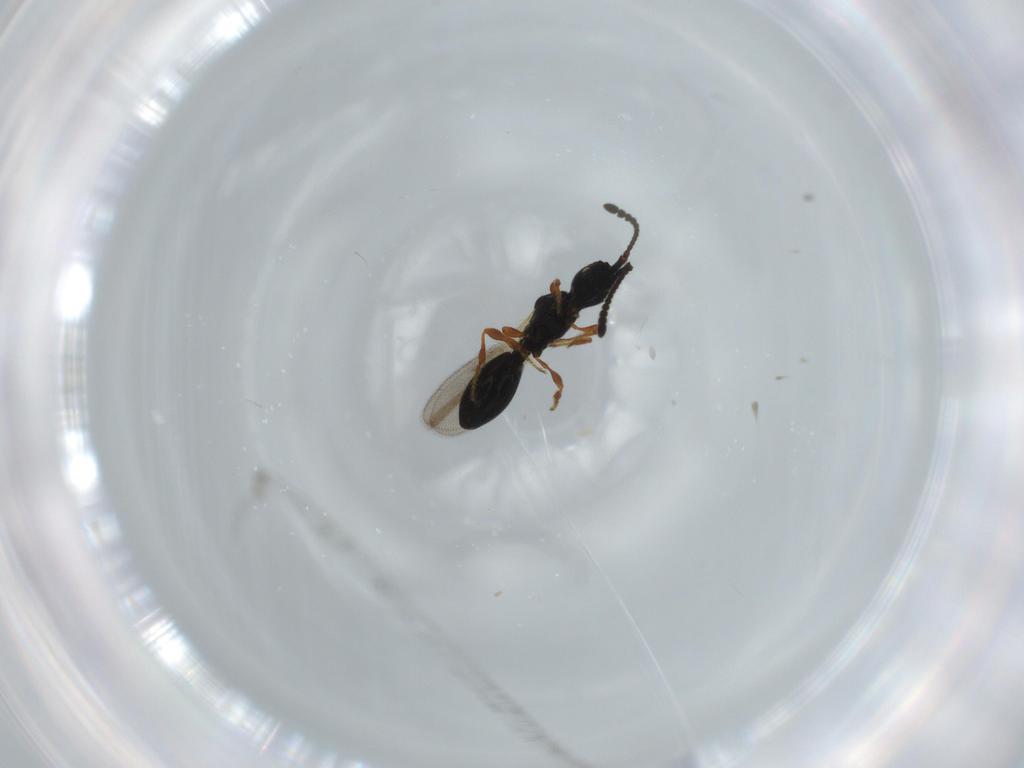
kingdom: Animalia
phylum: Arthropoda
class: Insecta
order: Hymenoptera
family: Diapriidae
